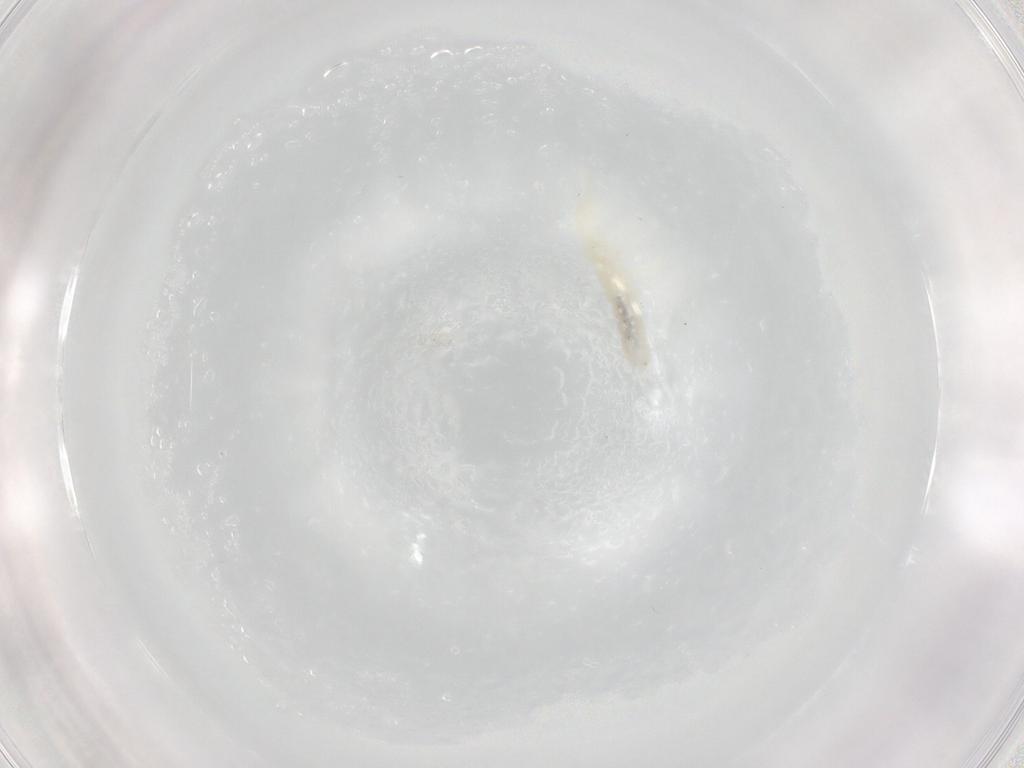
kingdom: Animalia
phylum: Arthropoda
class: Collembola
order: Poduromorpha
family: Onychiuridae
